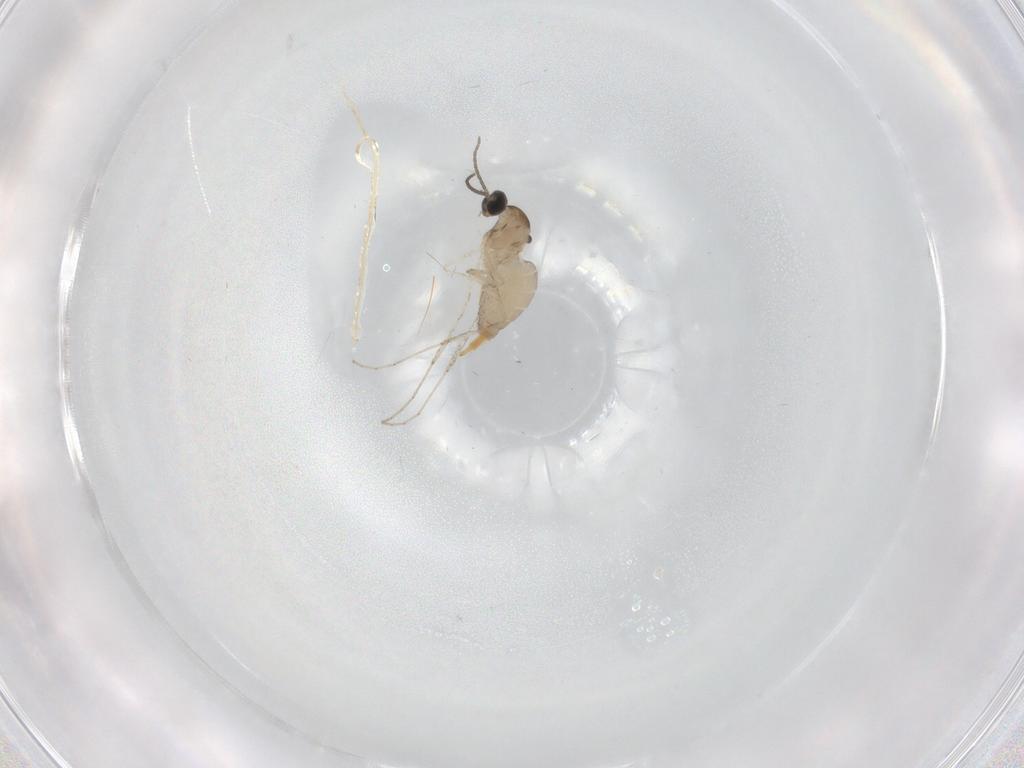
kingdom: Animalia
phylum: Arthropoda
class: Insecta
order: Diptera
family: Cecidomyiidae
